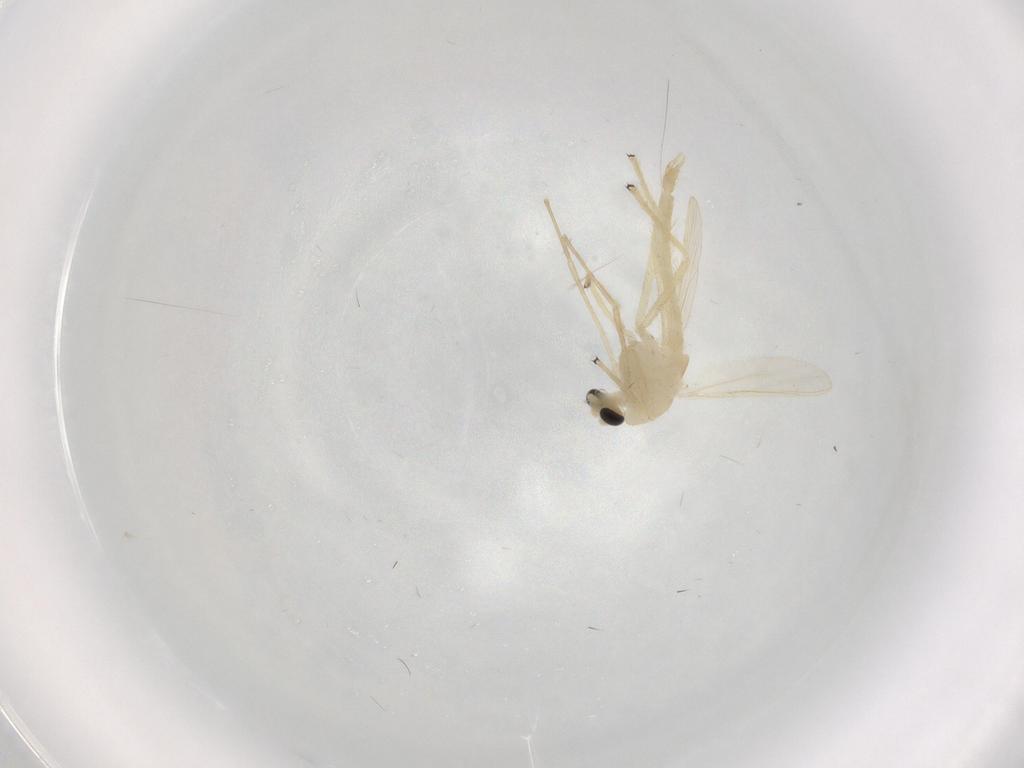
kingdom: Animalia
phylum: Arthropoda
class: Insecta
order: Diptera
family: Chironomidae
